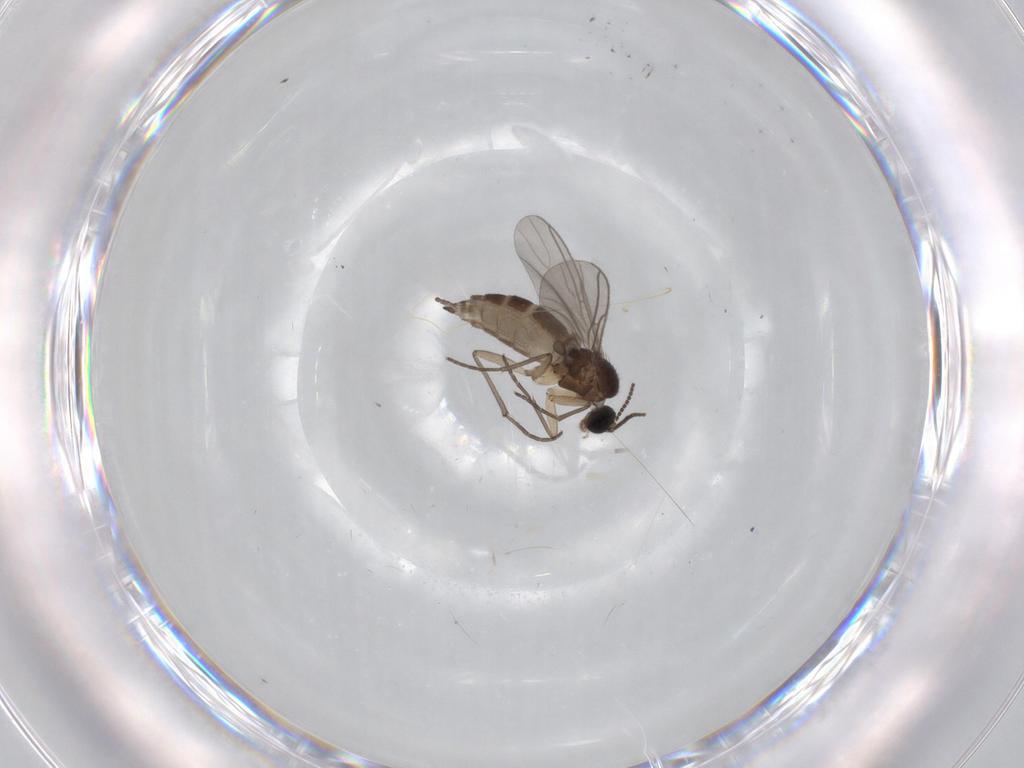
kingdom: Animalia
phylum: Arthropoda
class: Insecta
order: Diptera
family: Sciaridae
